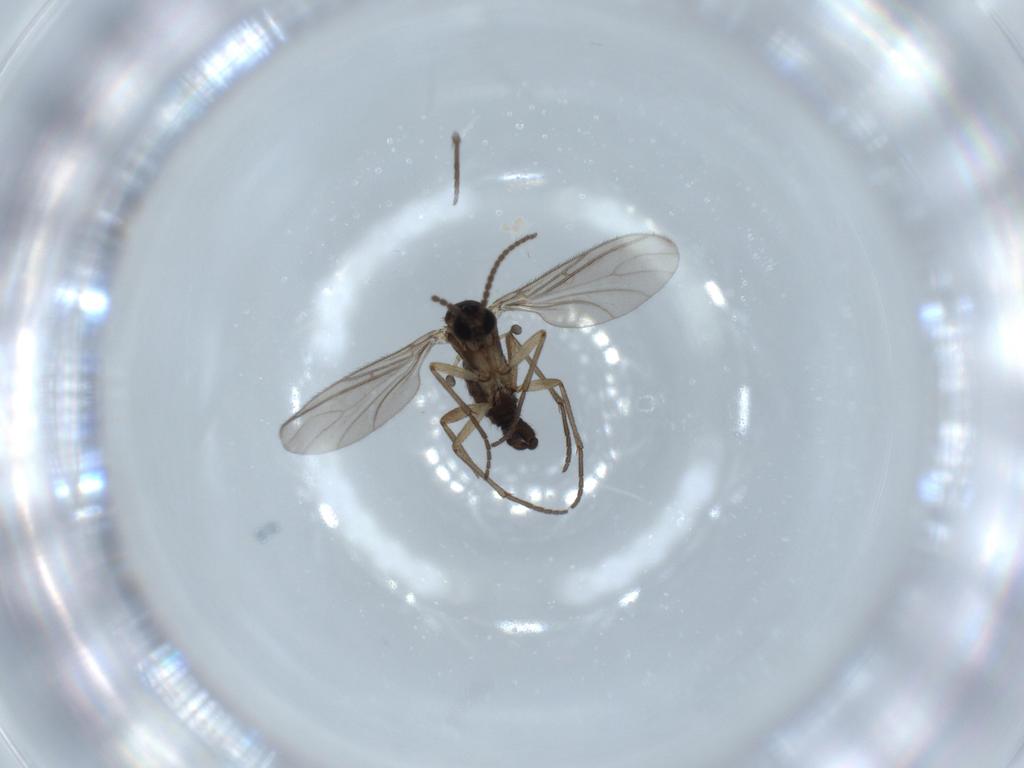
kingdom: Animalia
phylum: Arthropoda
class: Insecta
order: Diptera
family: Sciaridae
